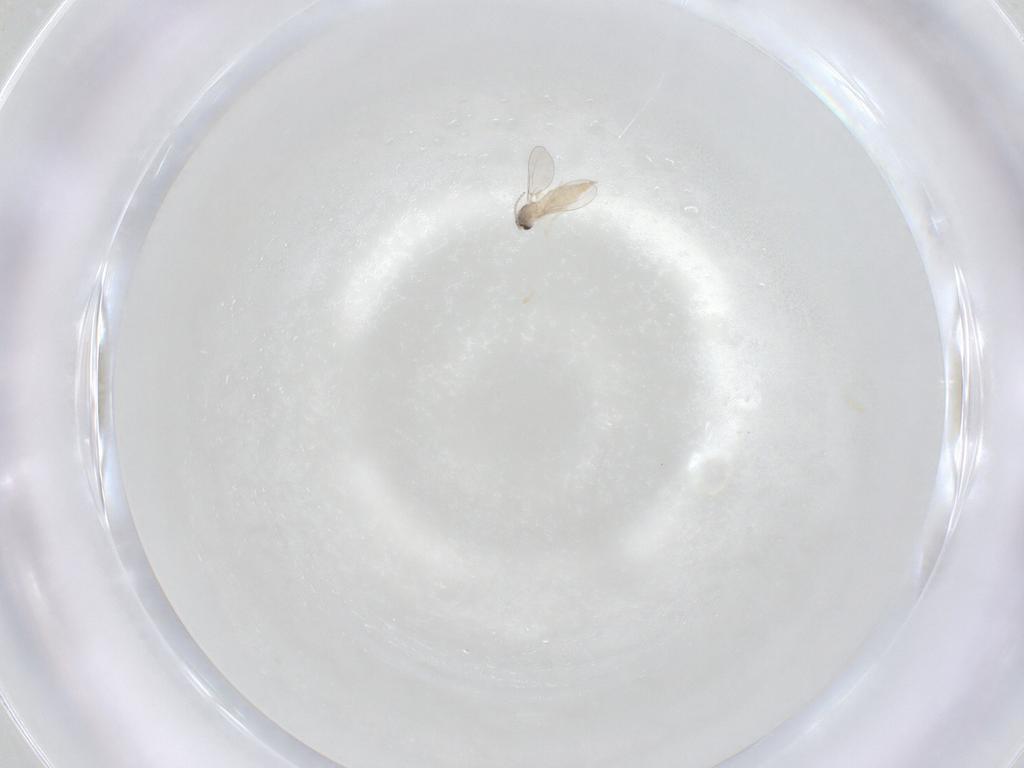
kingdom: Animalia
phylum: Arthropoda
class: Insecta
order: Diptera
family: Cecidomyiidae
